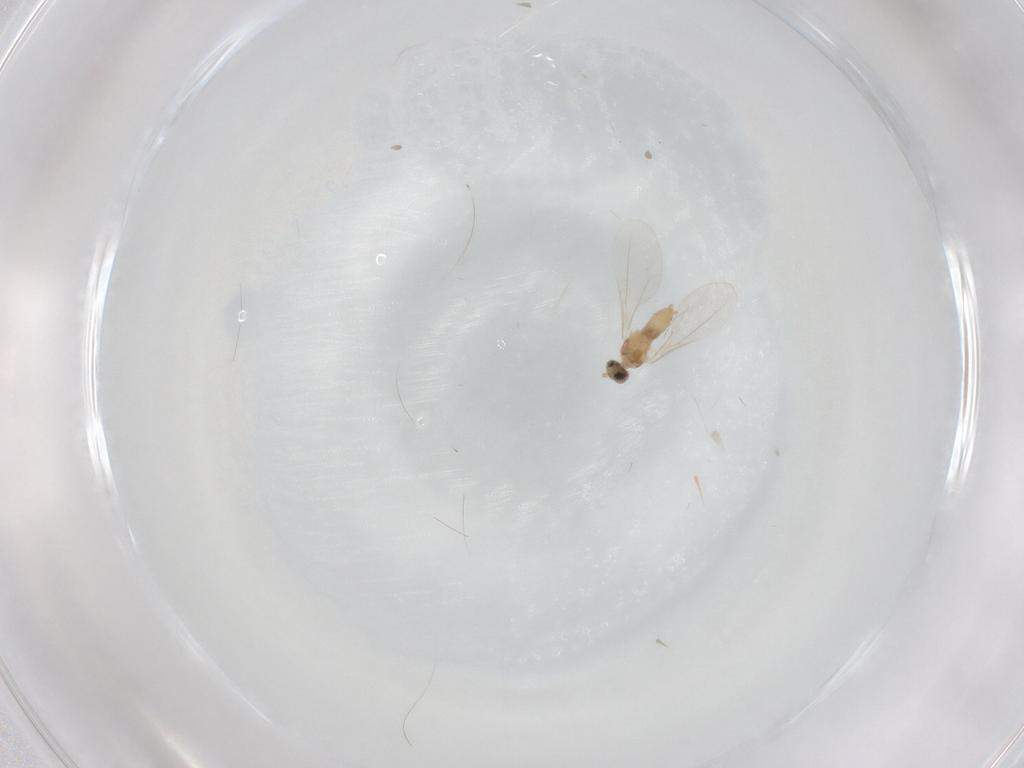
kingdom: Animalia
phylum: Arthropoda
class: Insecta
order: Diptera
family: Cecidomyiidae
